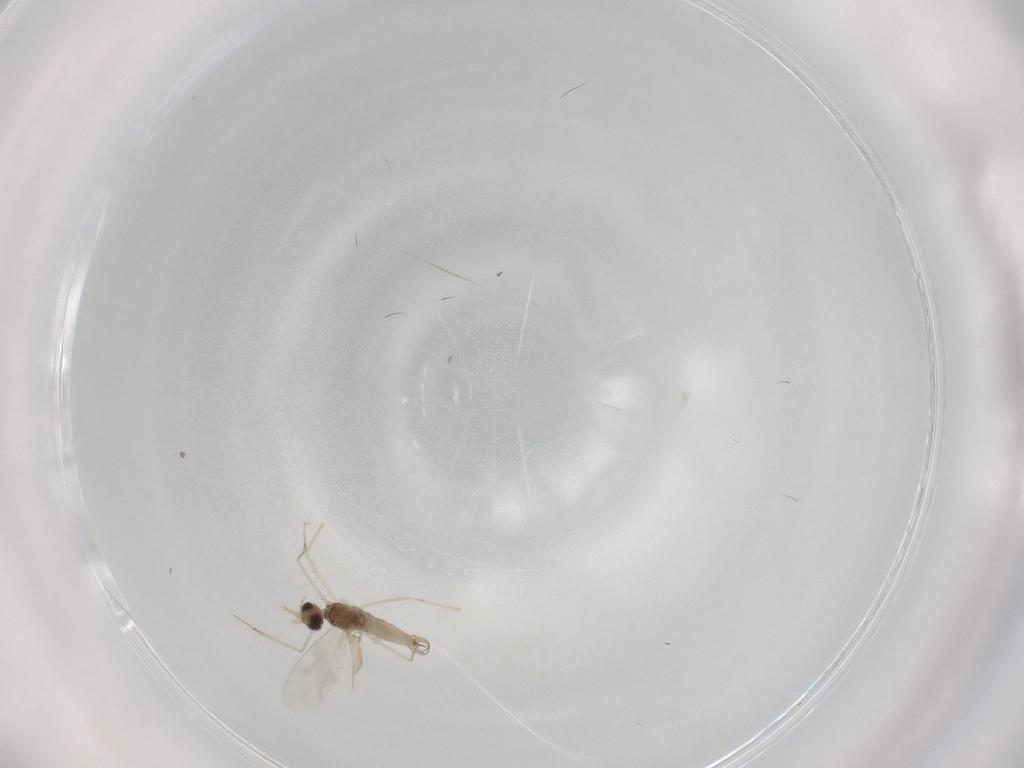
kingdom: Animalia
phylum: Arthropoda
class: Insecta
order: Diptera
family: Cecidomyiidae
